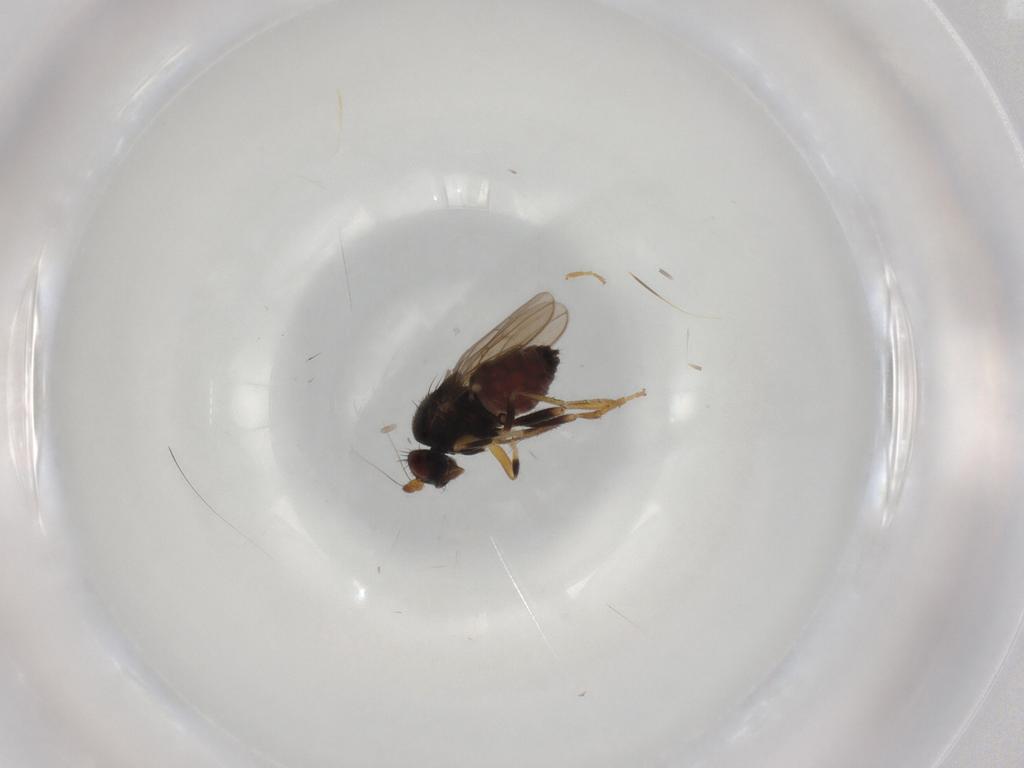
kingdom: Animalia
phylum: Arthropoda
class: Insecta
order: Diptera
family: Sphaeroceridae
